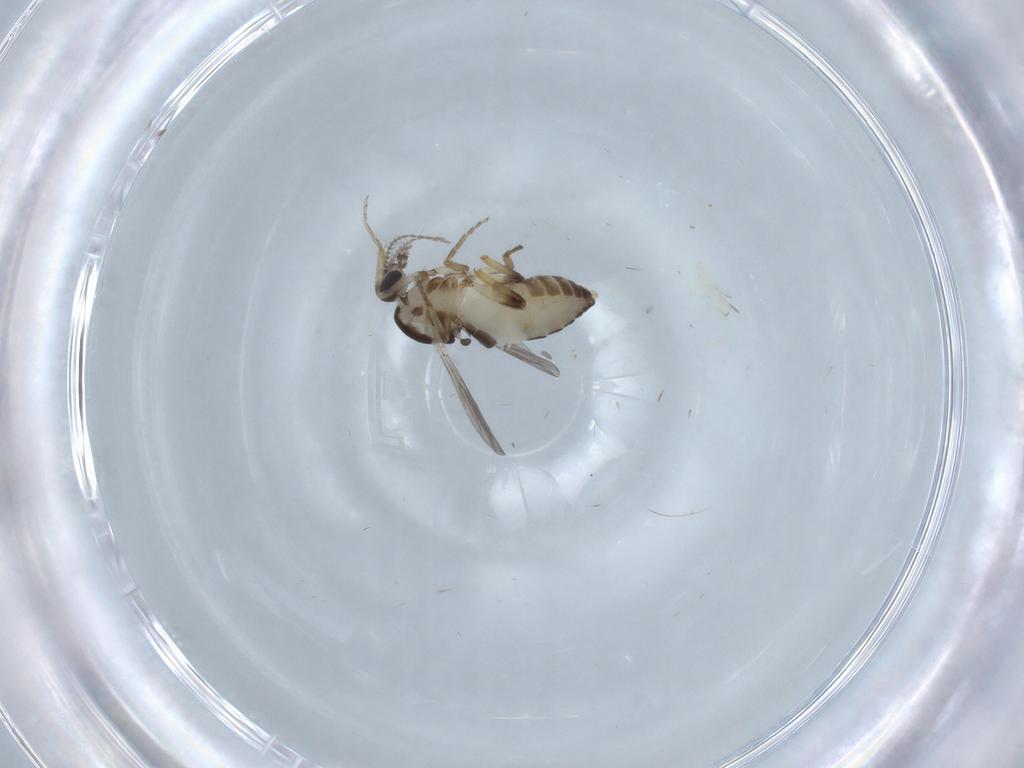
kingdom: Animalia
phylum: Arthropoda
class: Insecta
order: Diptera
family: Ceratopogonidae
